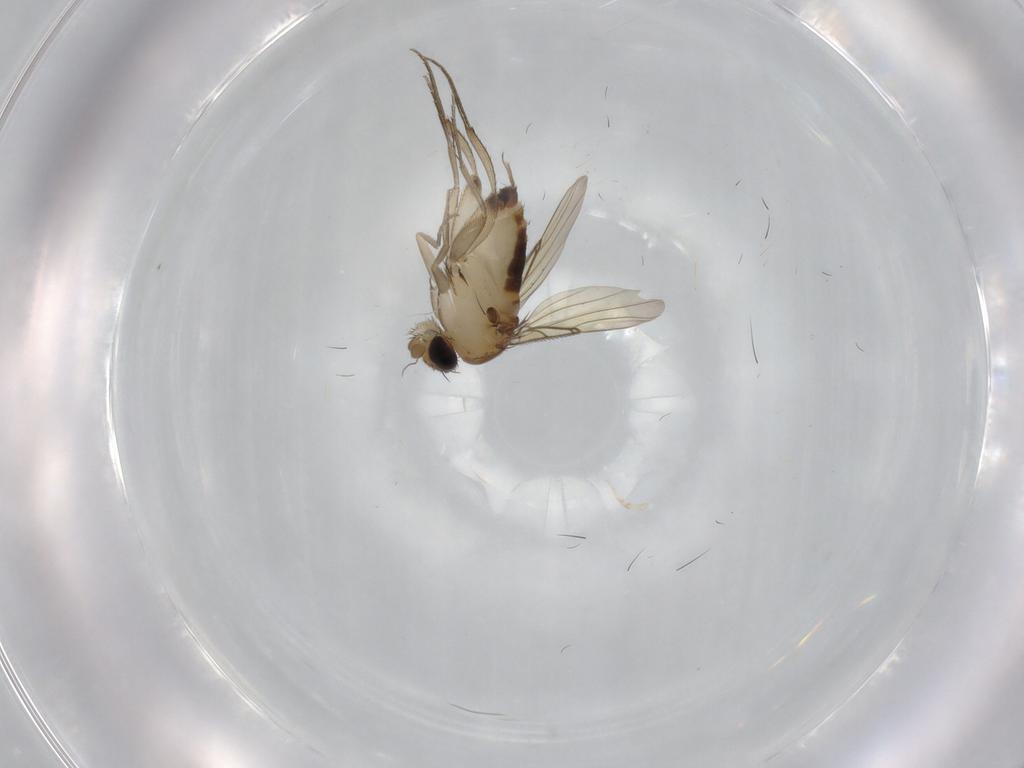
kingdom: Animalia
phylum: Arthropoda
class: Insecta
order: Diptera
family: Phoridae
